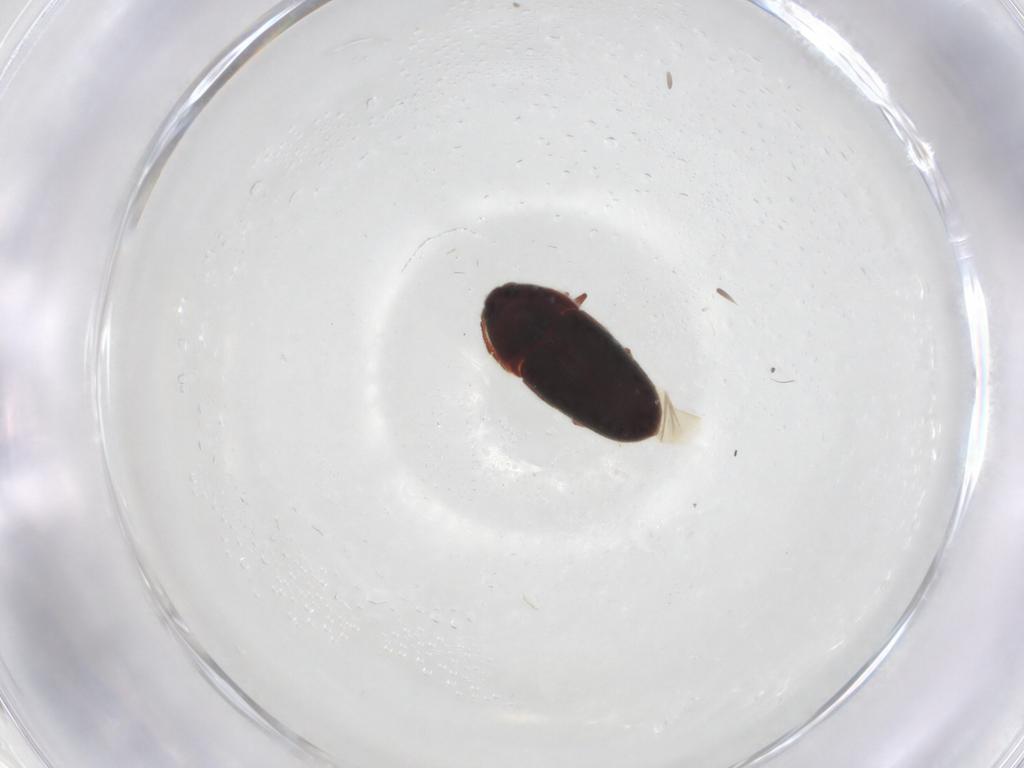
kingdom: Animalia
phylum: Arthropoda
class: Insecta
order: Coleoptera
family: Throscidae
